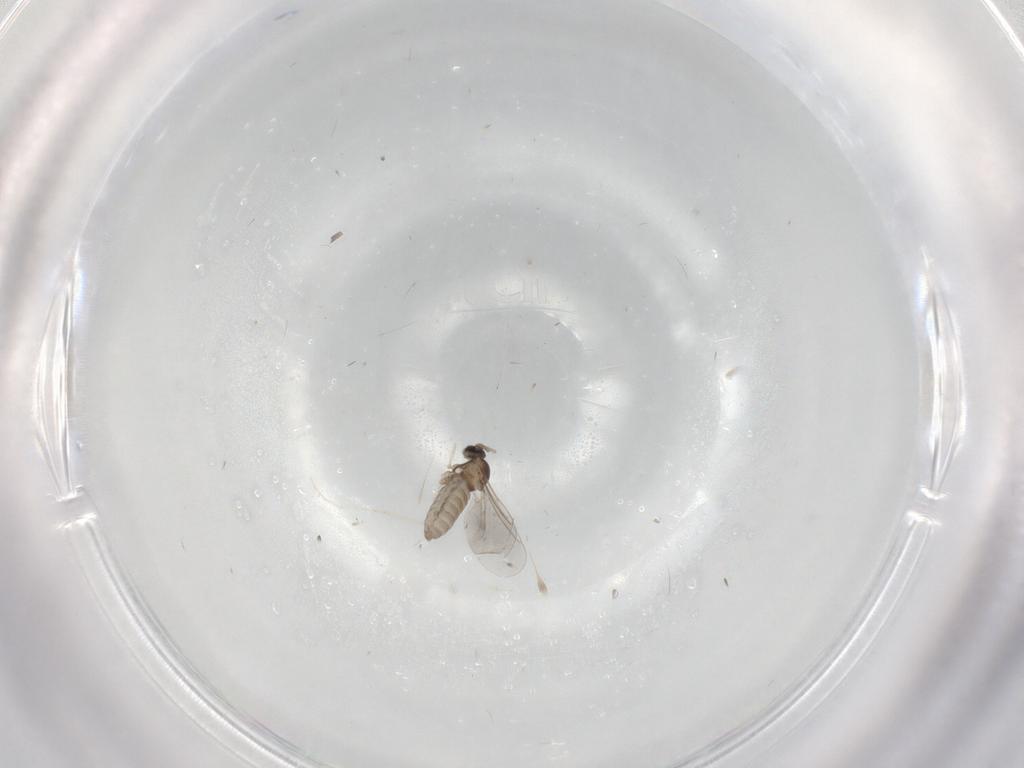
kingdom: Animalia
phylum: Arthropoda
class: Insecta
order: Diptera
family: Cecidomyiidae
